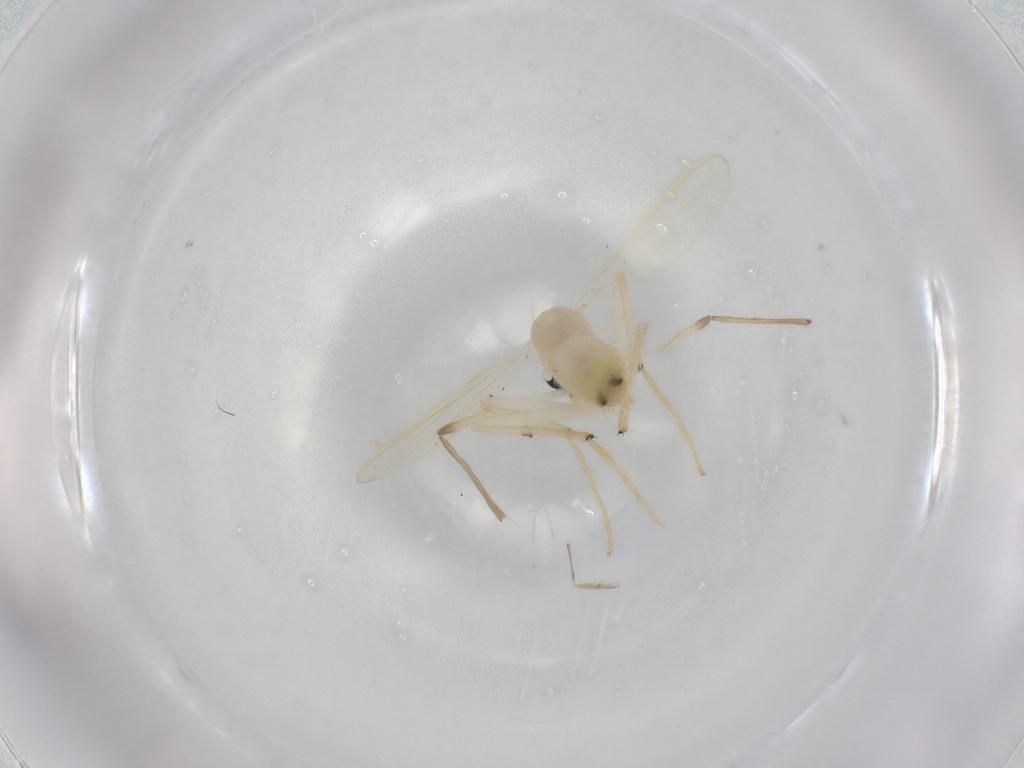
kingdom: Animalia
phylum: Arthropoda
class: Insecta
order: Diptera
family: Chironomidae
